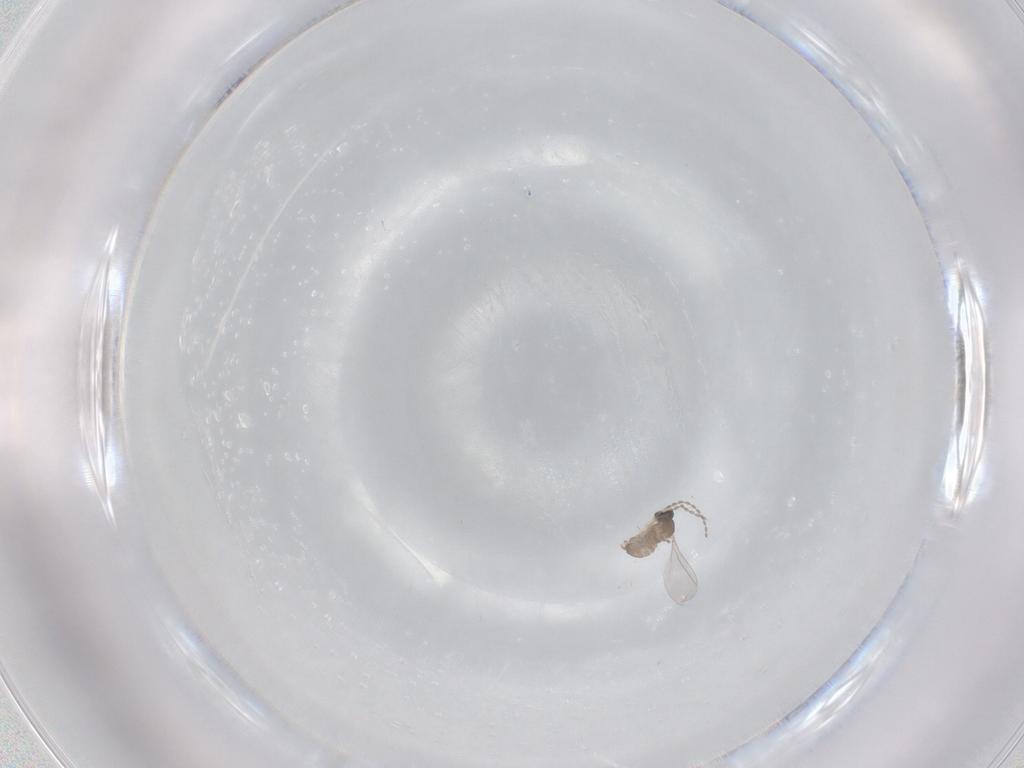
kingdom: Animalia
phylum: Arthropoda
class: Insecta
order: Diptera
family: Cecidomyiidae
